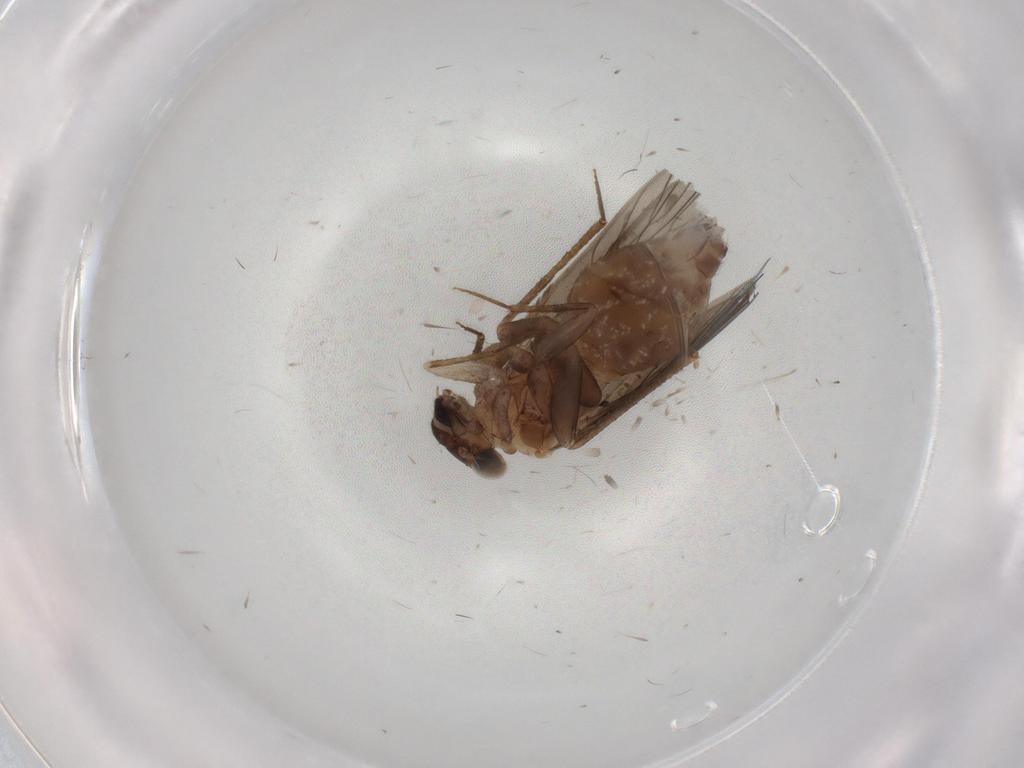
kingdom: Animalia
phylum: Arthropoda
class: Insecta
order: Psocodea
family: Lepidopsocidae
